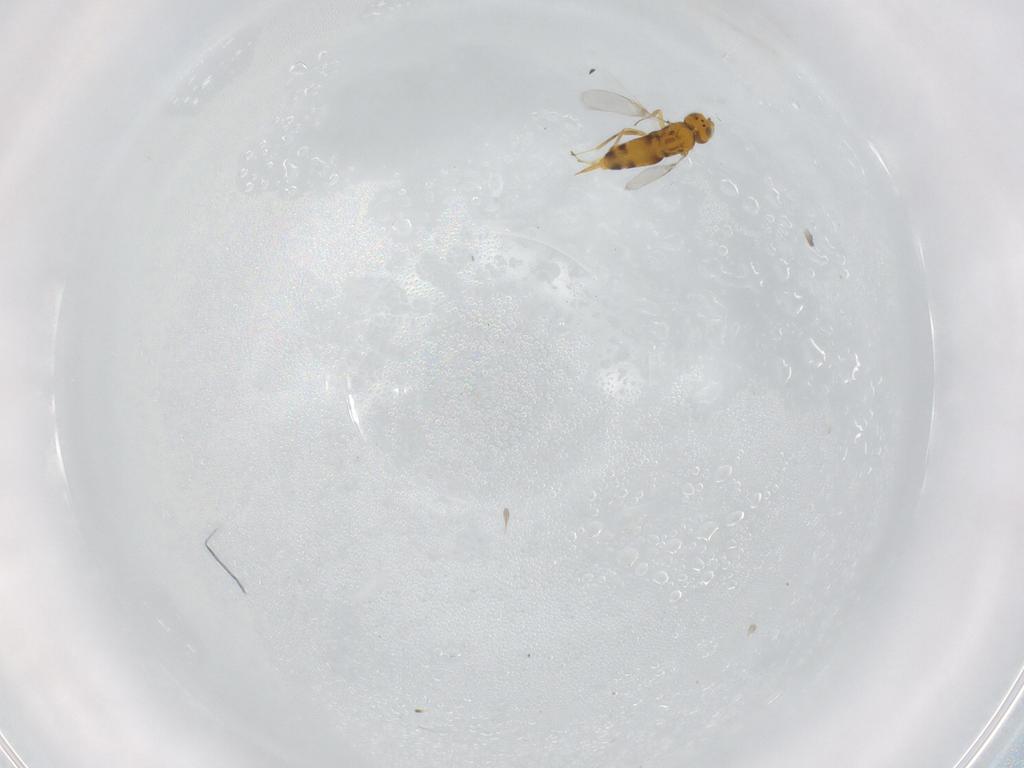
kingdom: Animalia
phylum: Arthropoda
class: Insecta
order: Hymenoptera
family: Aphelinidae
